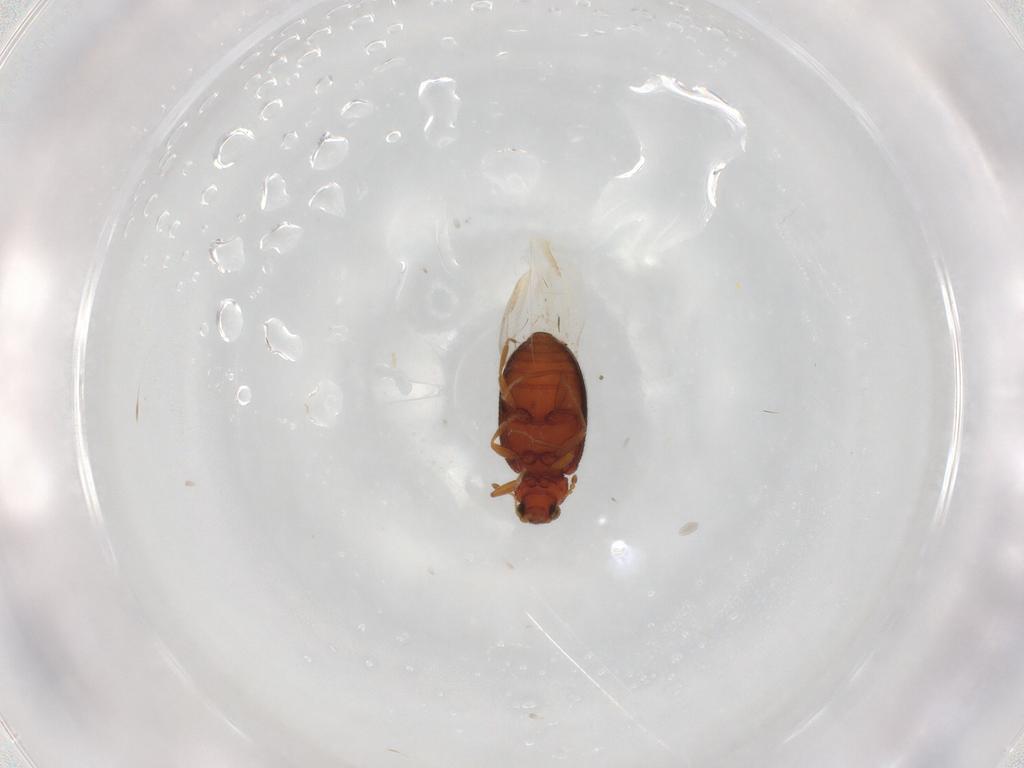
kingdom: Animalia
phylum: Arthropoda
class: Insecta
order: Coleoptera
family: Latridiidae
